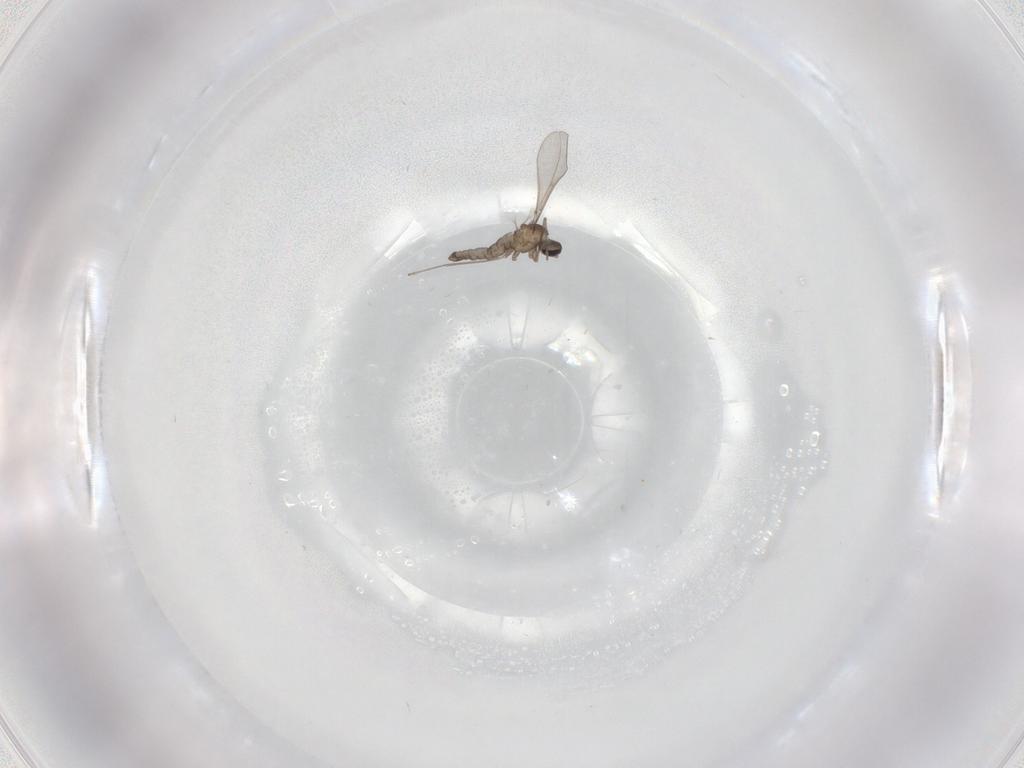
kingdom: Animalia
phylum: Arthropoda
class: Insecta
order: Diptera
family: Cecidomyiidae
